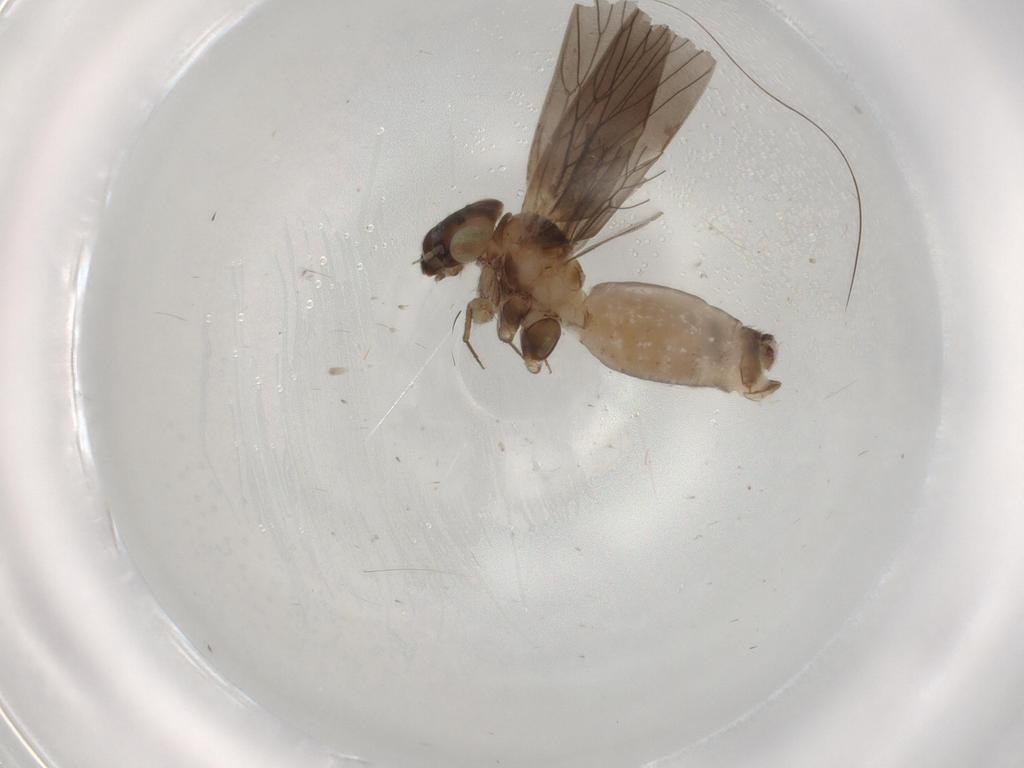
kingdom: Animalia
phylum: Arthropoda
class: Insecta
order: Psocodea
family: Lepidopsocidae
